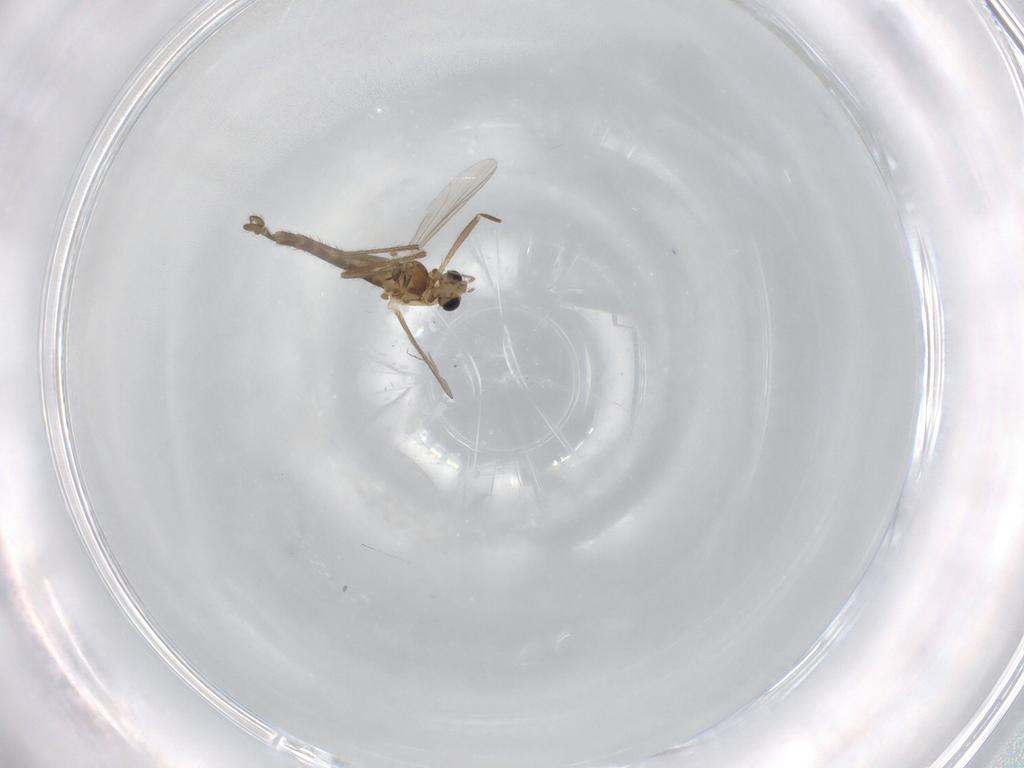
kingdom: Animalia
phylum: Arthropoda
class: Insecta
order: Diptera
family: Chironomidae
